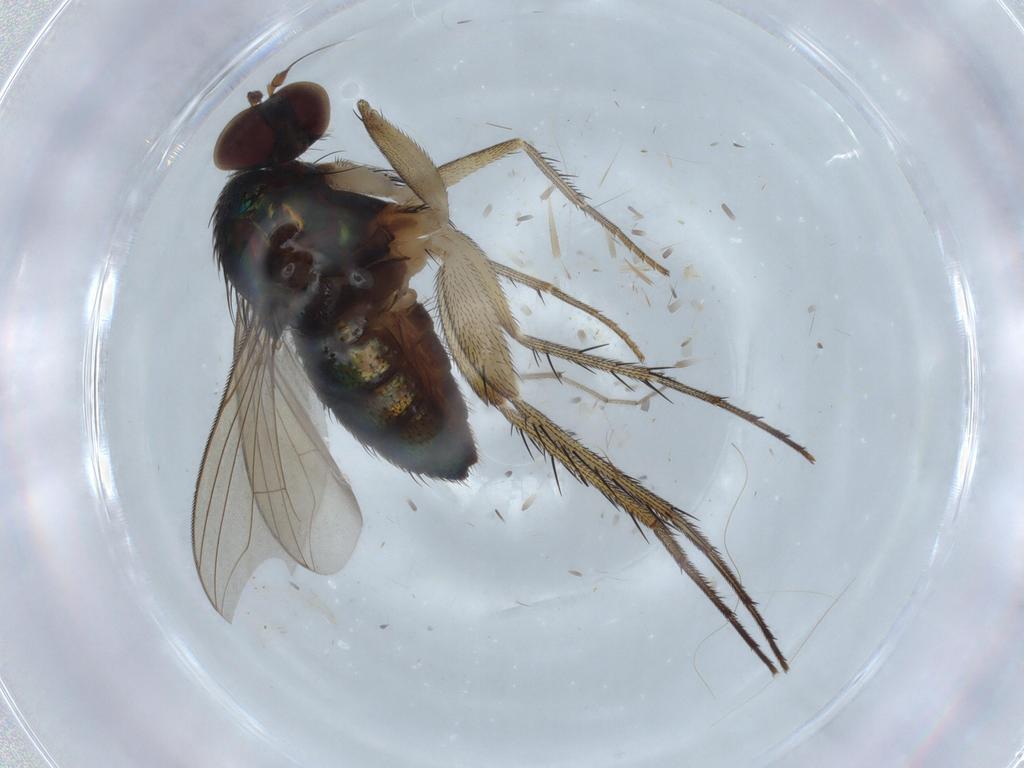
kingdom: Animalia
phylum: Arthropoda
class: Insecta
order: Diptera
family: Dolichopodidae
